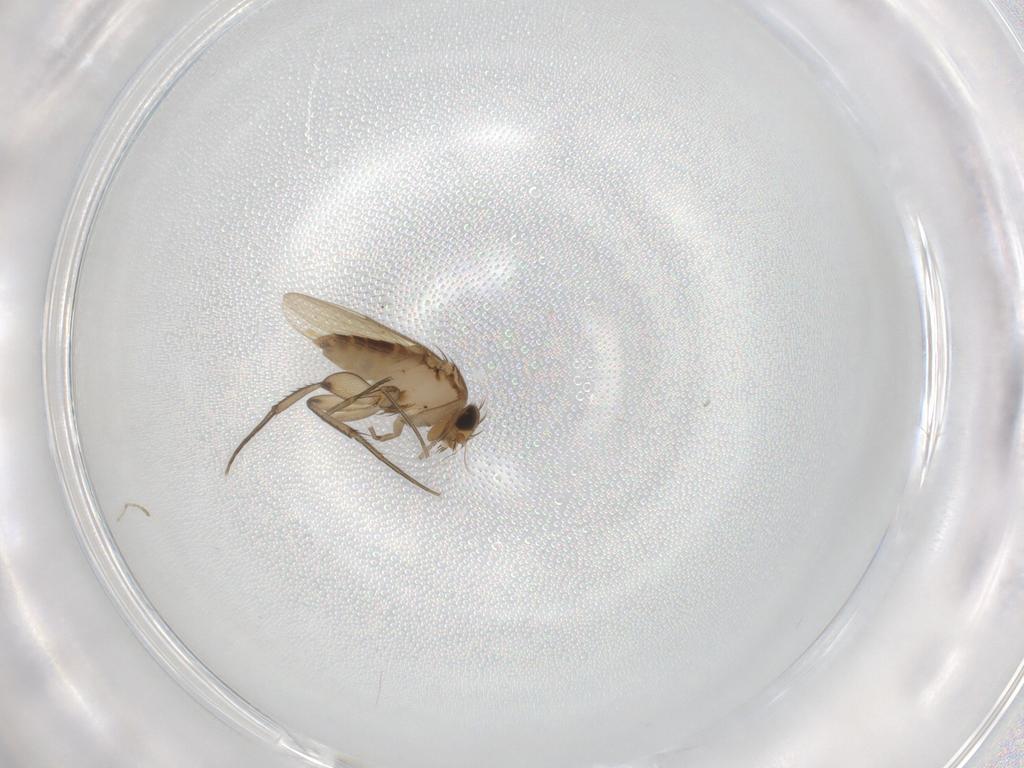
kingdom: Animalia
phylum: Arthropoda
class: Insecta
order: Diptera
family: Phoridae
